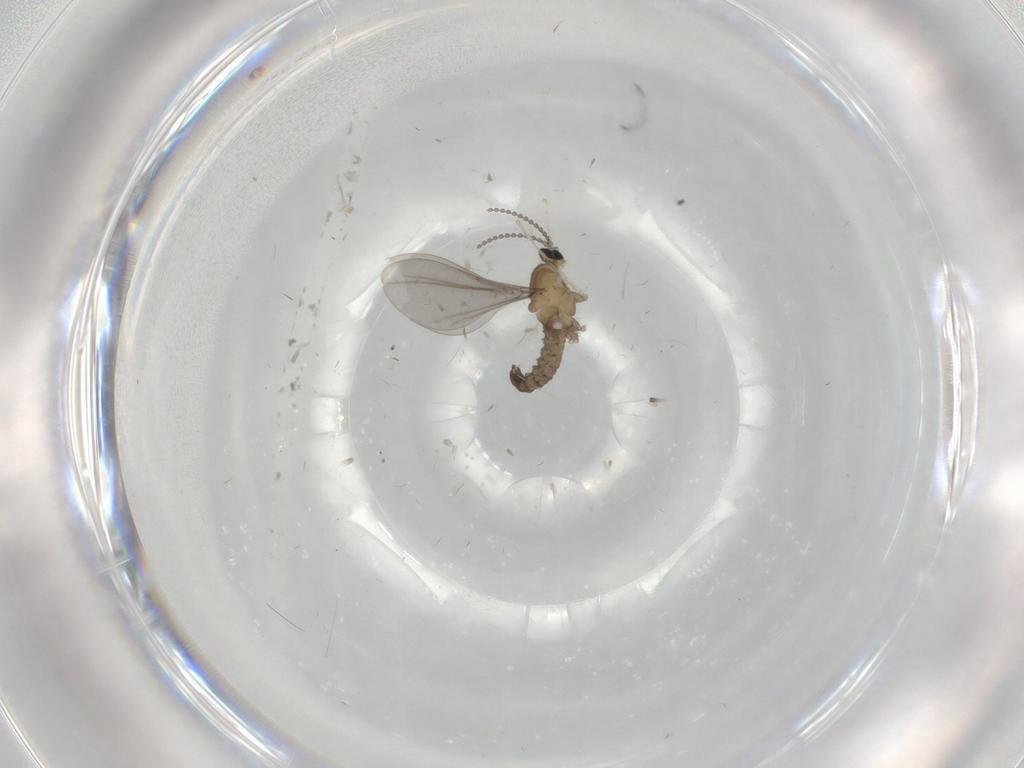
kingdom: Animalia
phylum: Arthropoda
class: Insecta
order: Diptera
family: Cecidomyiidae
